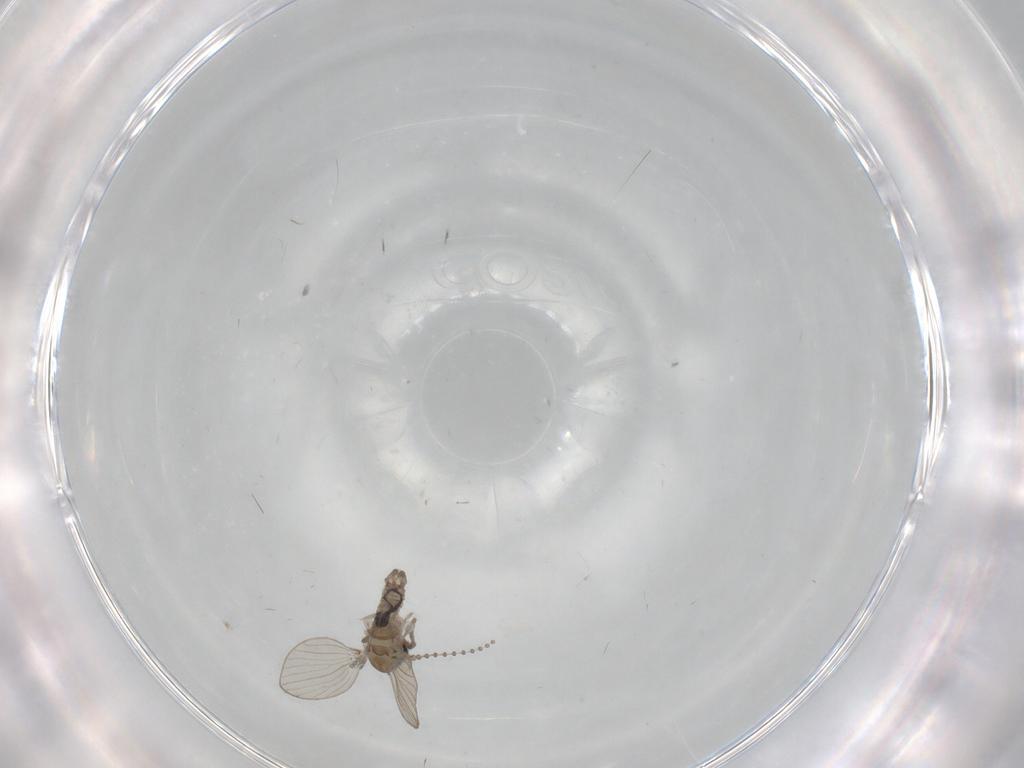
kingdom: Animalia
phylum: Arthropoda
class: Insecta
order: Diptera
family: Psychodidae
